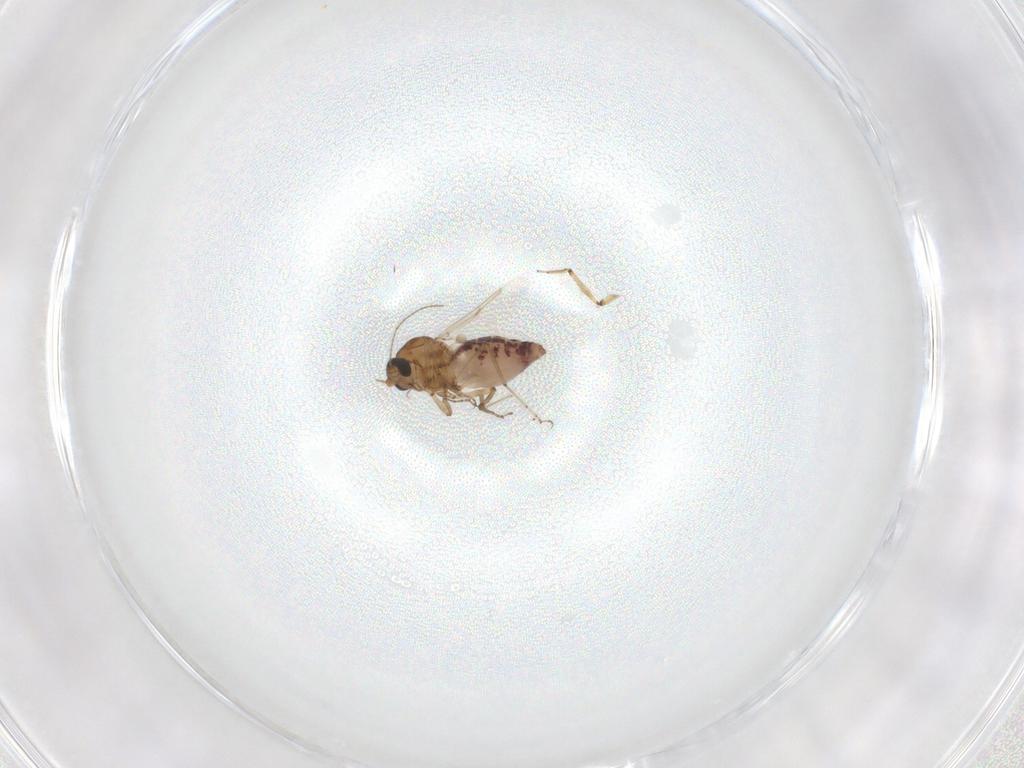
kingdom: Animalia
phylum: Arthropoda
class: Insecta
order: Diptera
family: Ceratopogonidae
